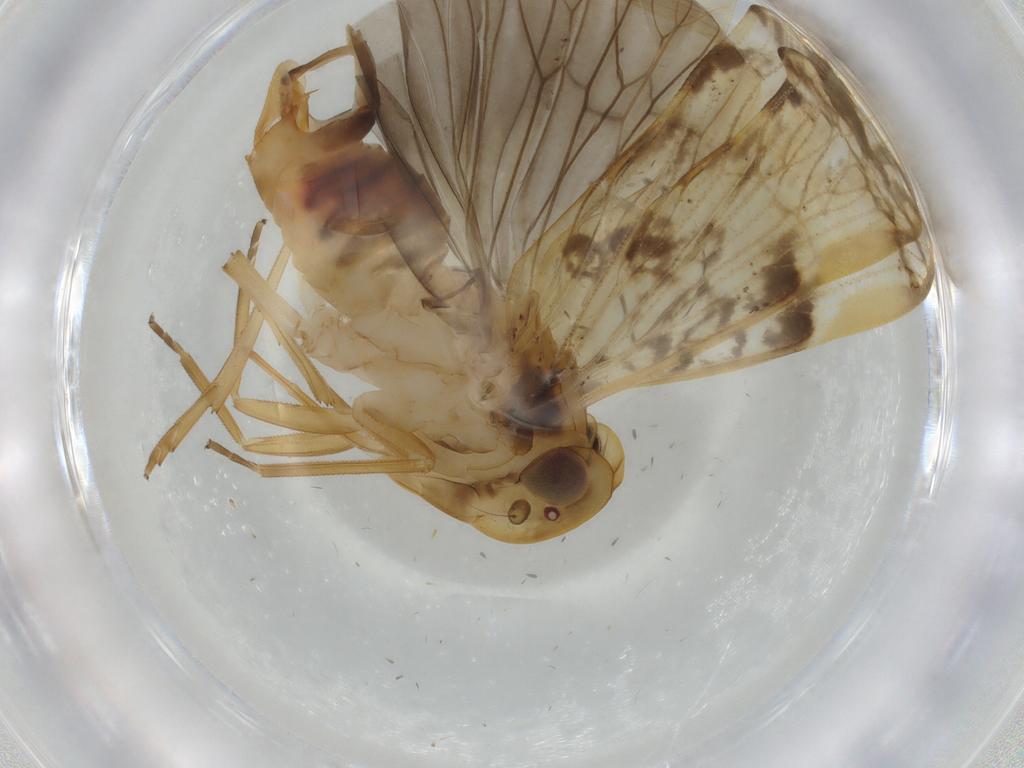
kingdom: Animalia
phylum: Arthropoda
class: Insecta
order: Hemiptera
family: Cixiidae
